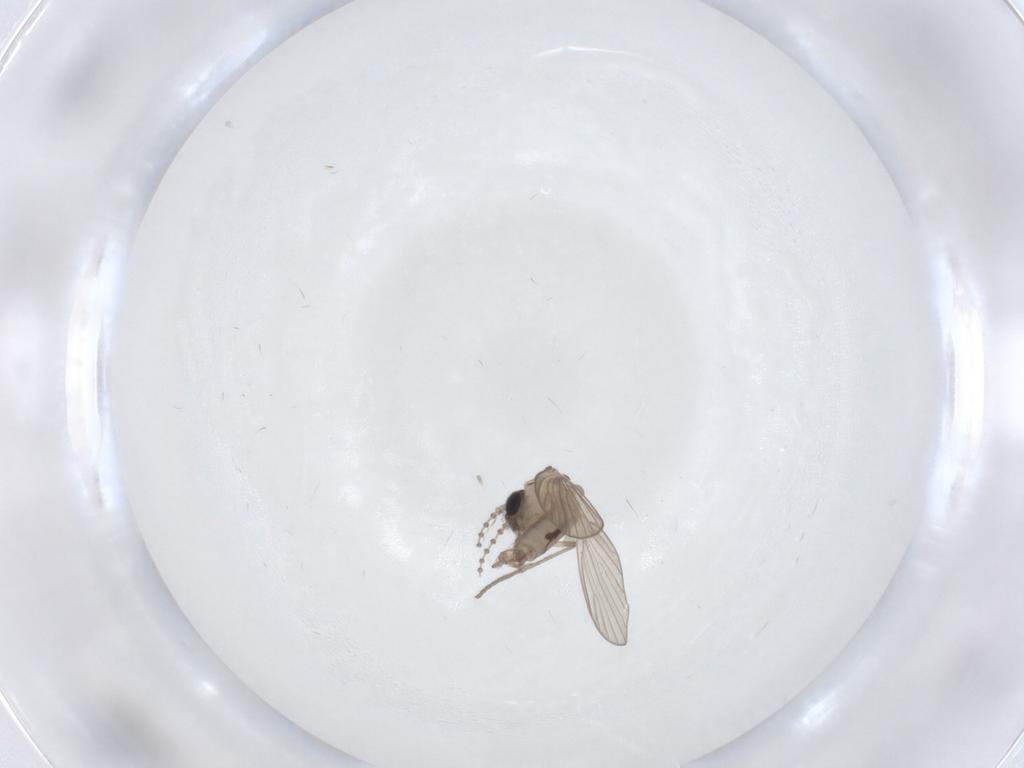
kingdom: Animalia
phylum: Arthropoda
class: Insecta
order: Diptera
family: Psychodidae
